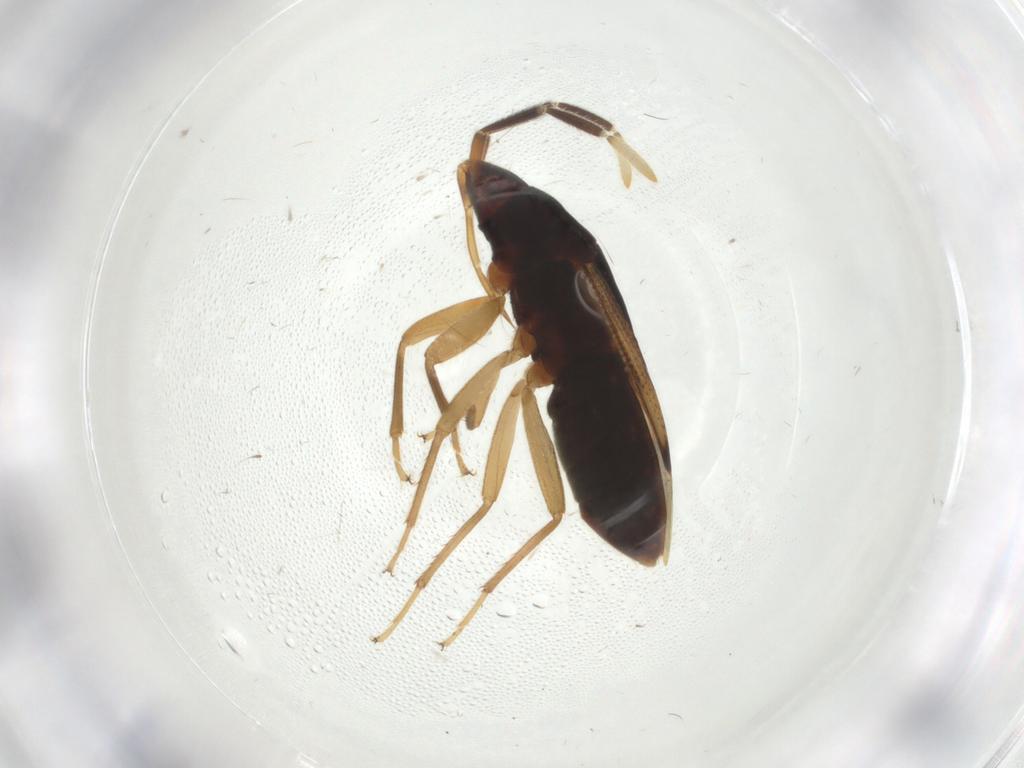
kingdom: Animalia
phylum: Arthropoda
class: Insecta
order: Hemiptera
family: Rhyparochromidae
